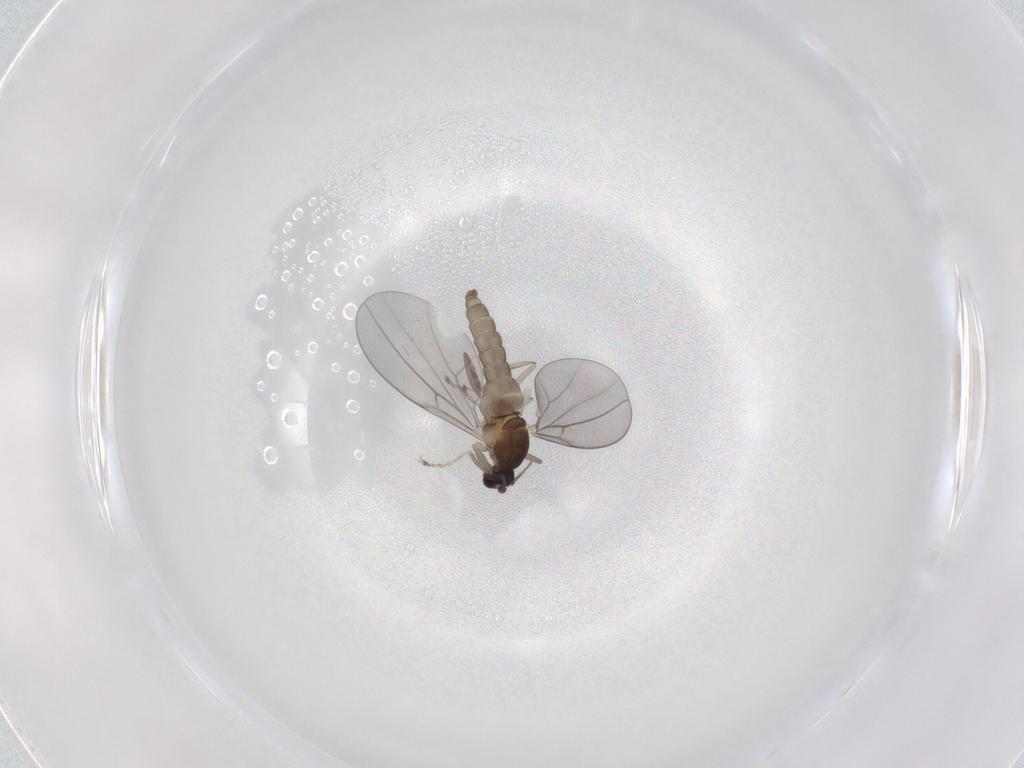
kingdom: Animalia
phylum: Arthropoda
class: Insecta
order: Diptera
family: Cecidomyiidae
